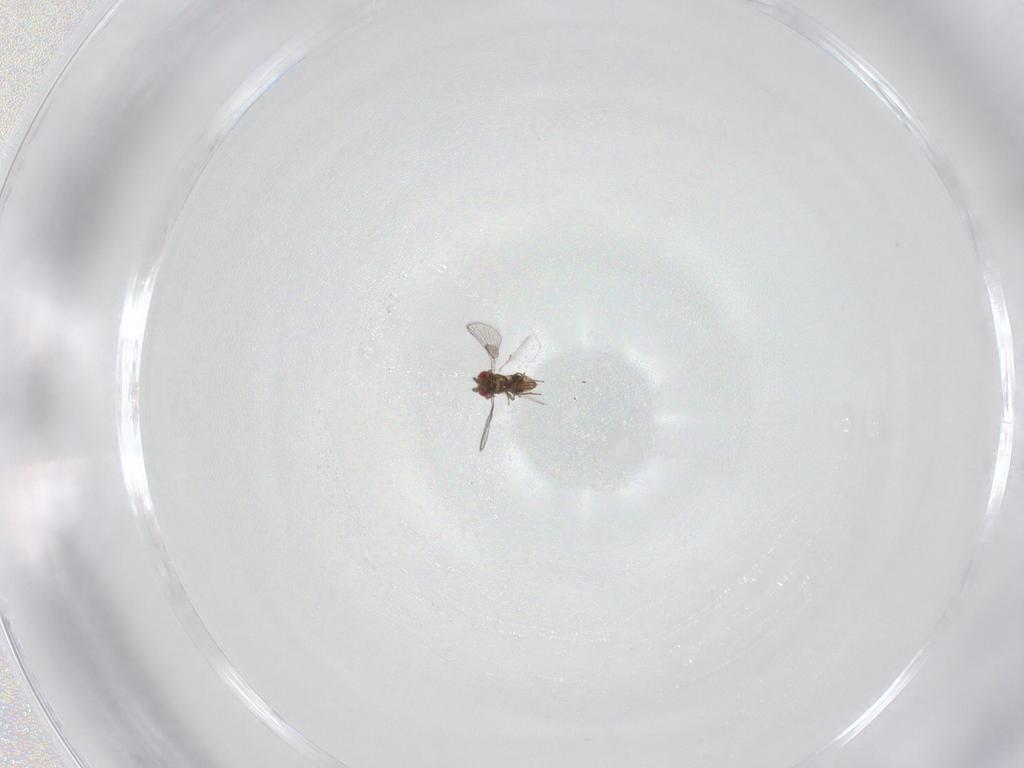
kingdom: Animalia
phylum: Arthropoda
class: Insecta
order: Hymenoptera
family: Trichogrammatidae
